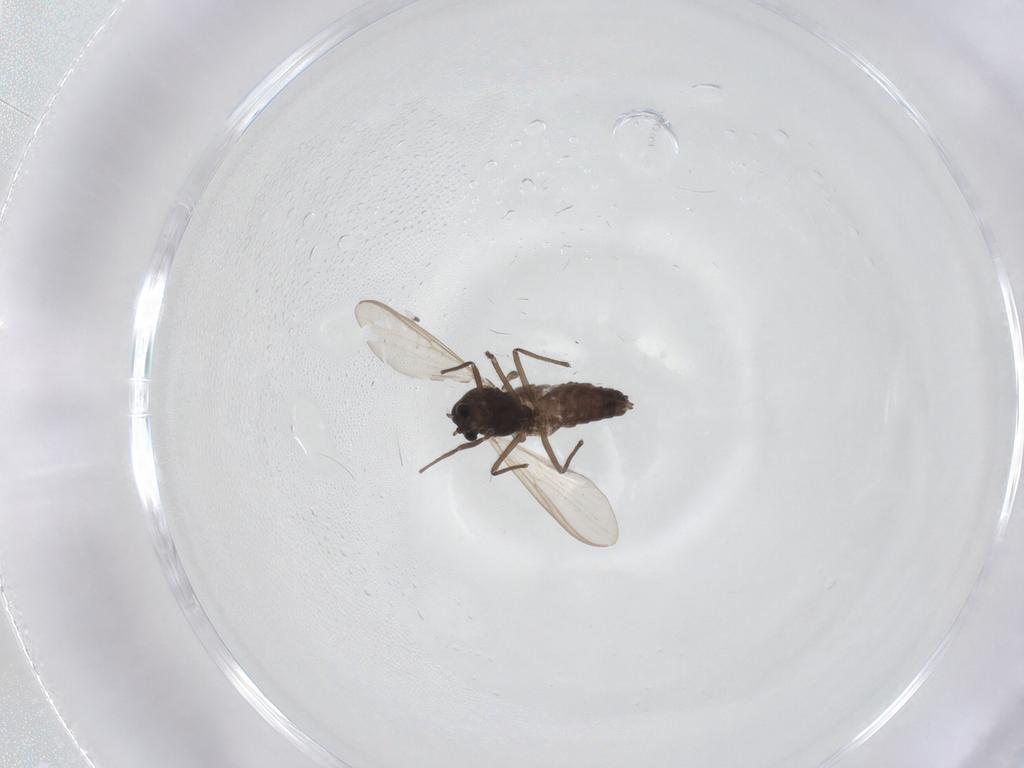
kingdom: Animalia
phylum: Arthropoda
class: Insecta
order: Diptera
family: Ceratopogonidae
